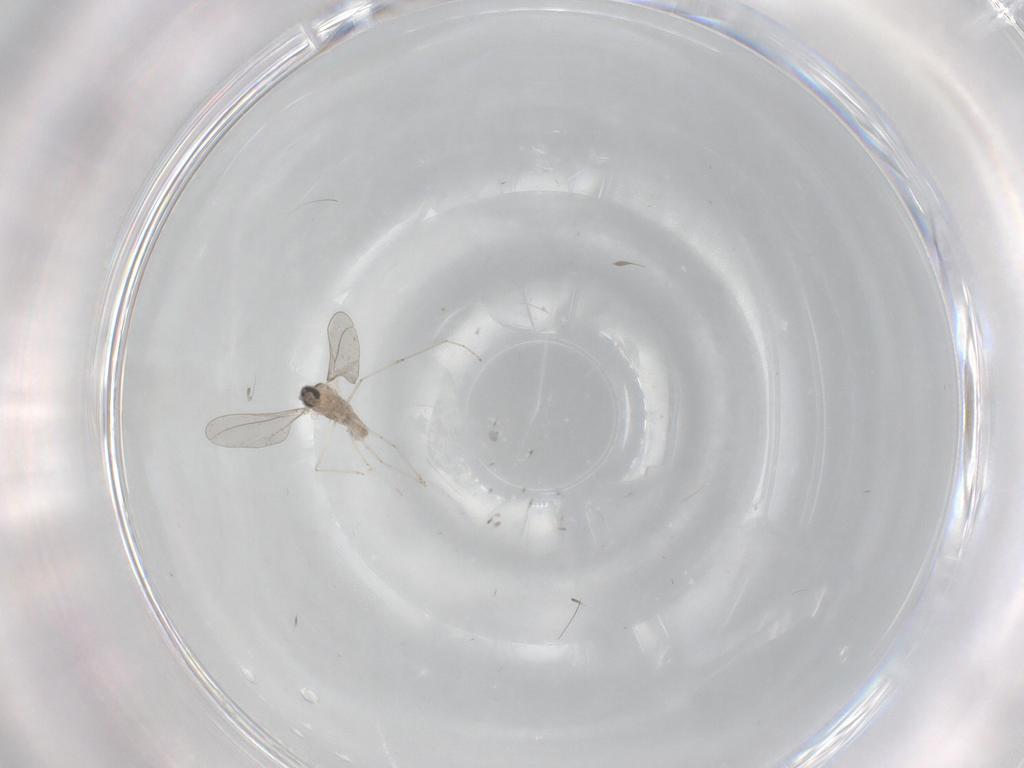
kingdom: Animalia
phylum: Arthropoda
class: Insecta
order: Diptera
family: Cecidomyiidae
